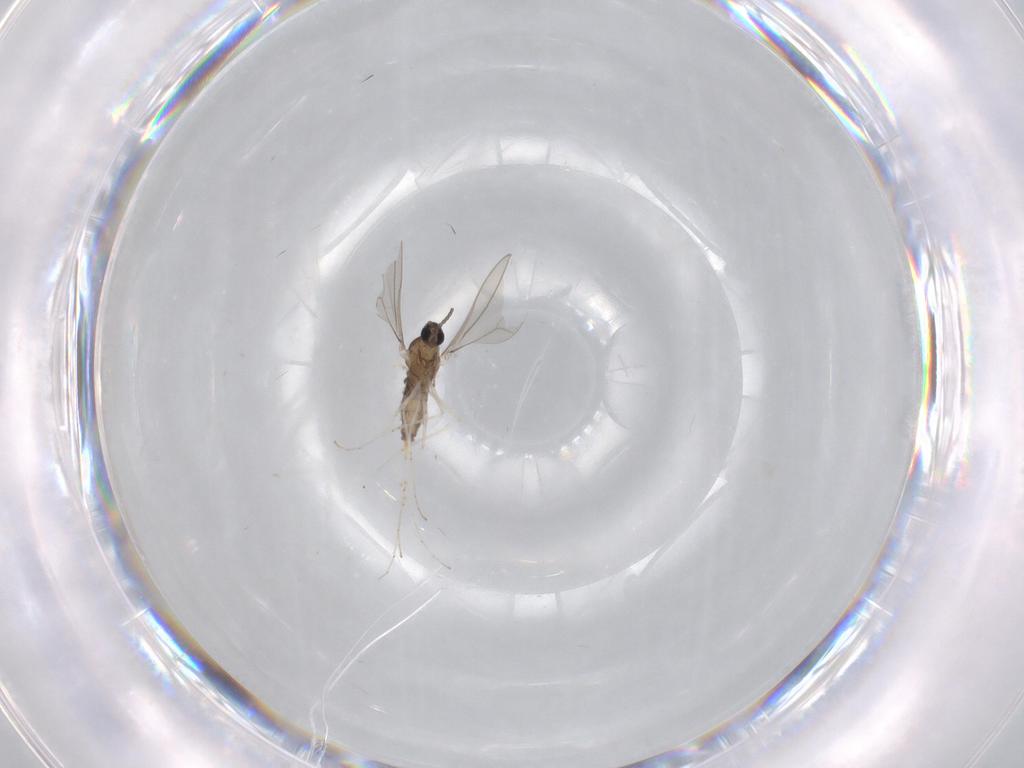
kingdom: Animalia
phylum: Arthropoda
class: Insecta
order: Diptera
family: Cecidomyiidae
